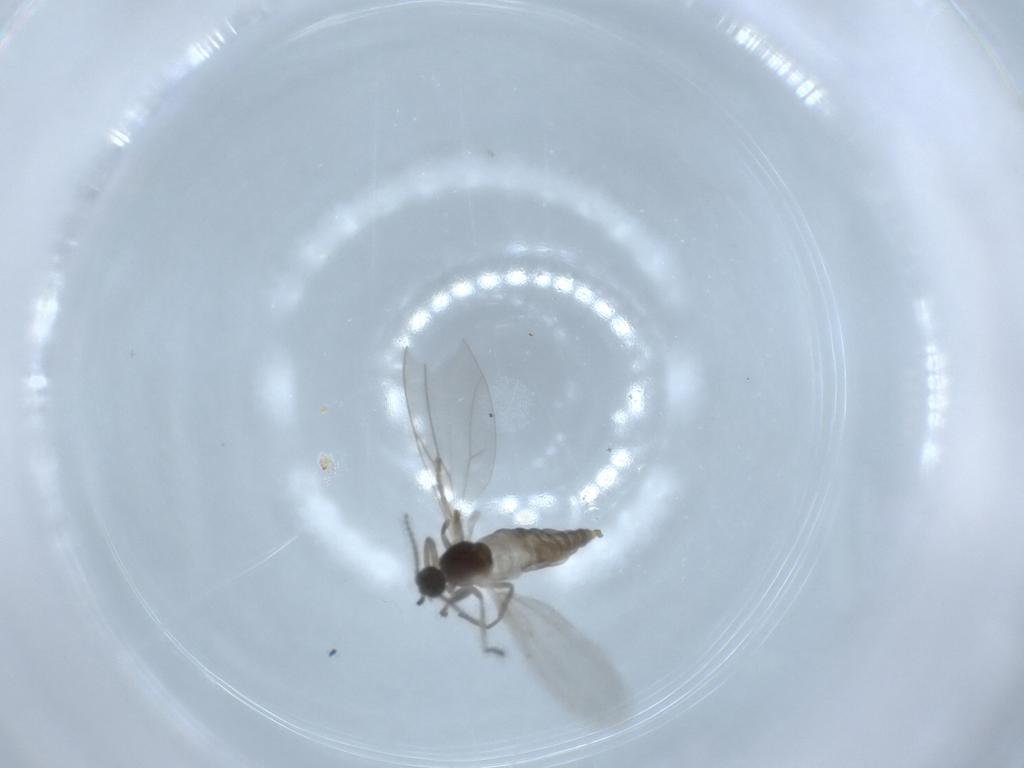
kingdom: Animalia
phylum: Arthropoda
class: Insecta
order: Diptera
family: Cecidomyiidae
